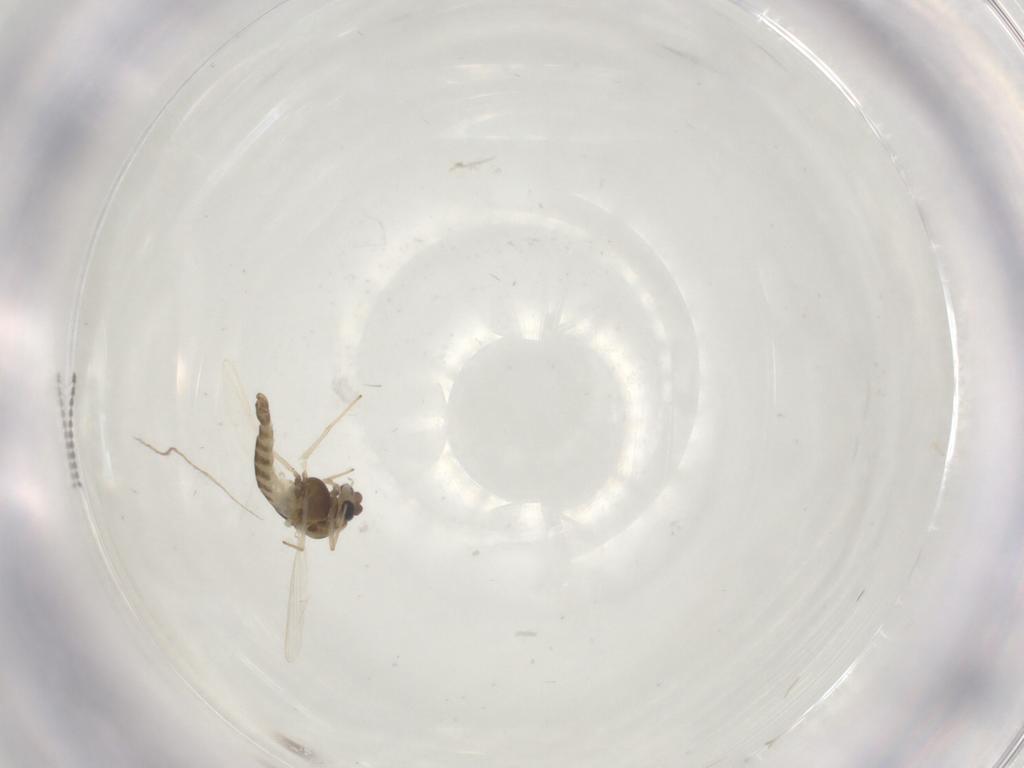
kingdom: Animalia
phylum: Arthropoda
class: Insecta
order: Diptera
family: Chironomidae
